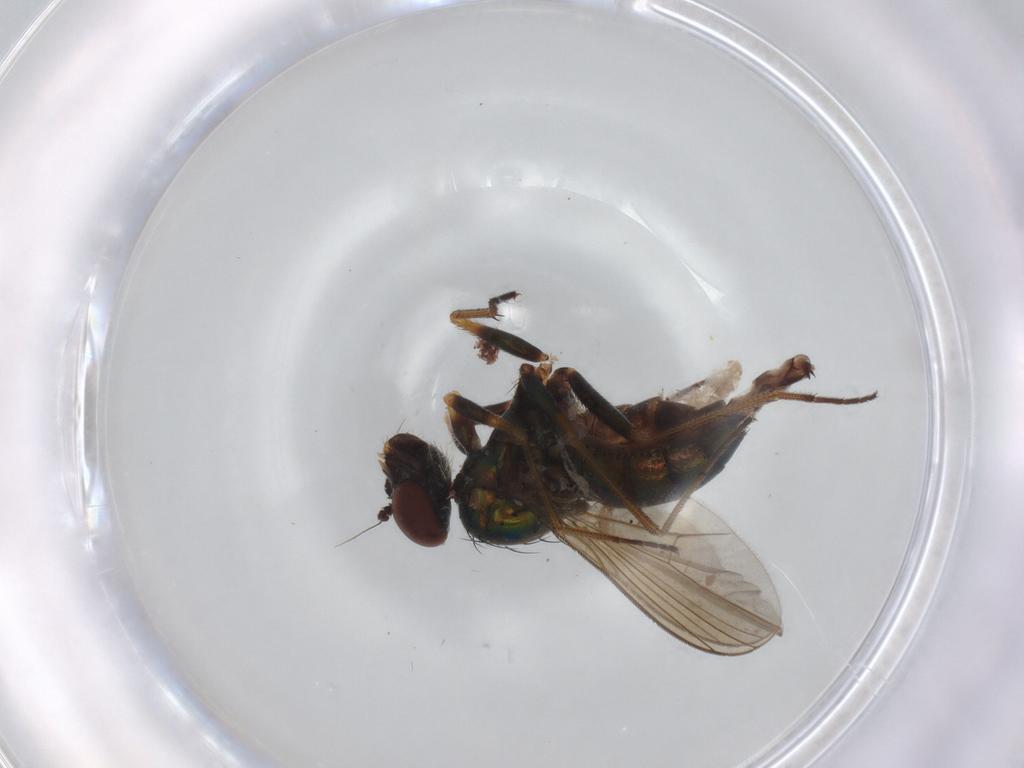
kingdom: Animalia
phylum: Arthropoda
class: Insecta
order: Diptera
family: Dolichopodidae
